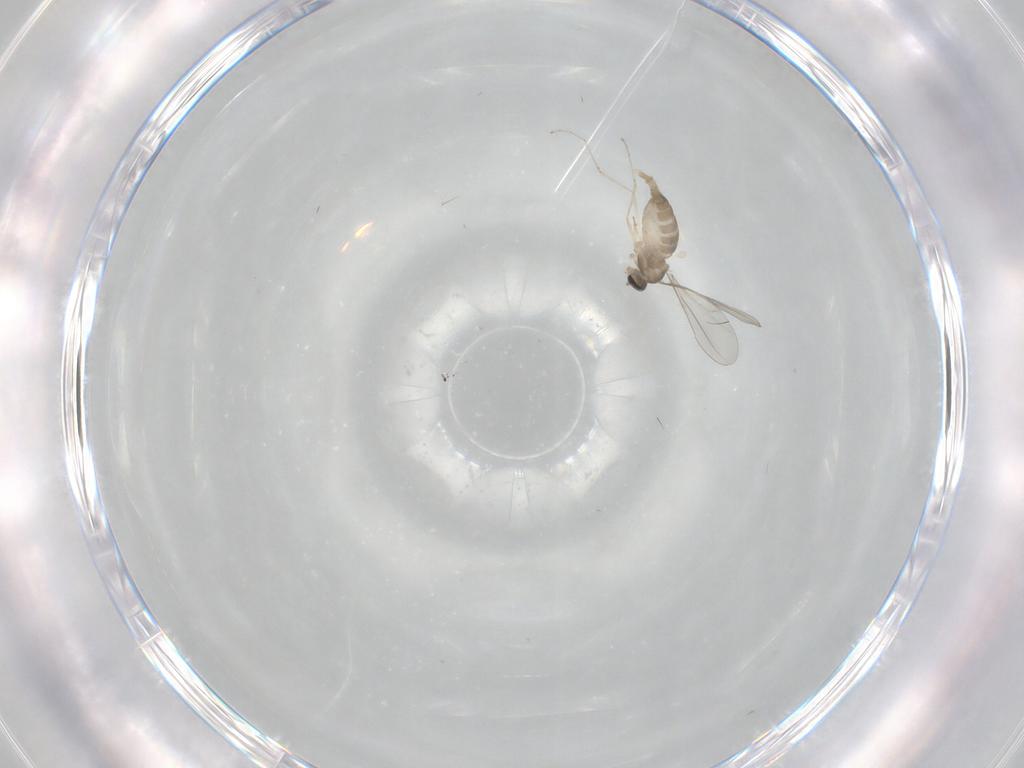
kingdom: Animalia
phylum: Arthropoda
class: Insecta
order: Diptera
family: Cecidomyiidae
